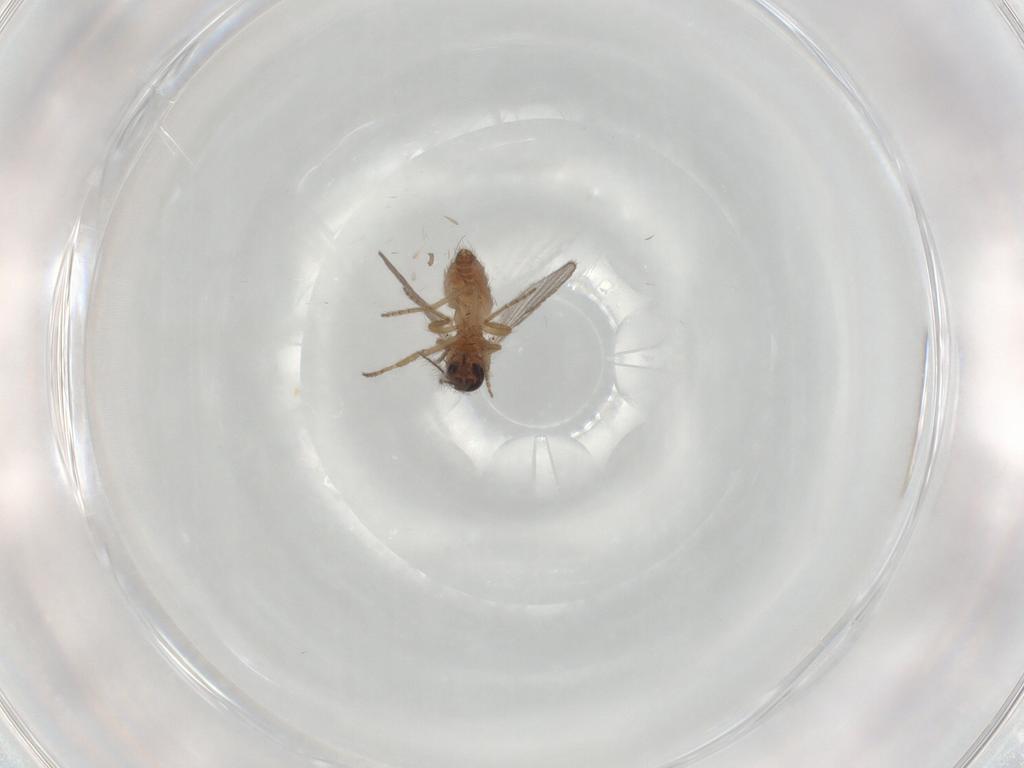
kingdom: Animalia
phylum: Arthropoda
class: Insecta
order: Diptera
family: Ceratopogonidae
